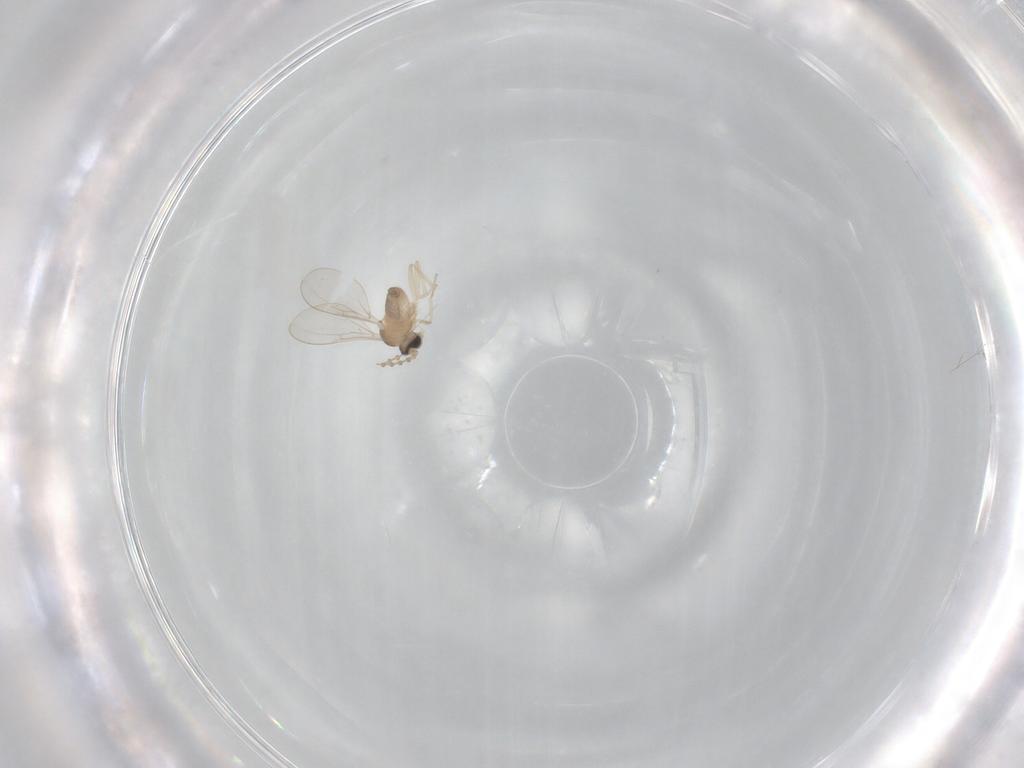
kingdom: Animalia
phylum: Arthropoda
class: Insecta
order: Diptera
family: Cecidomyiidae
